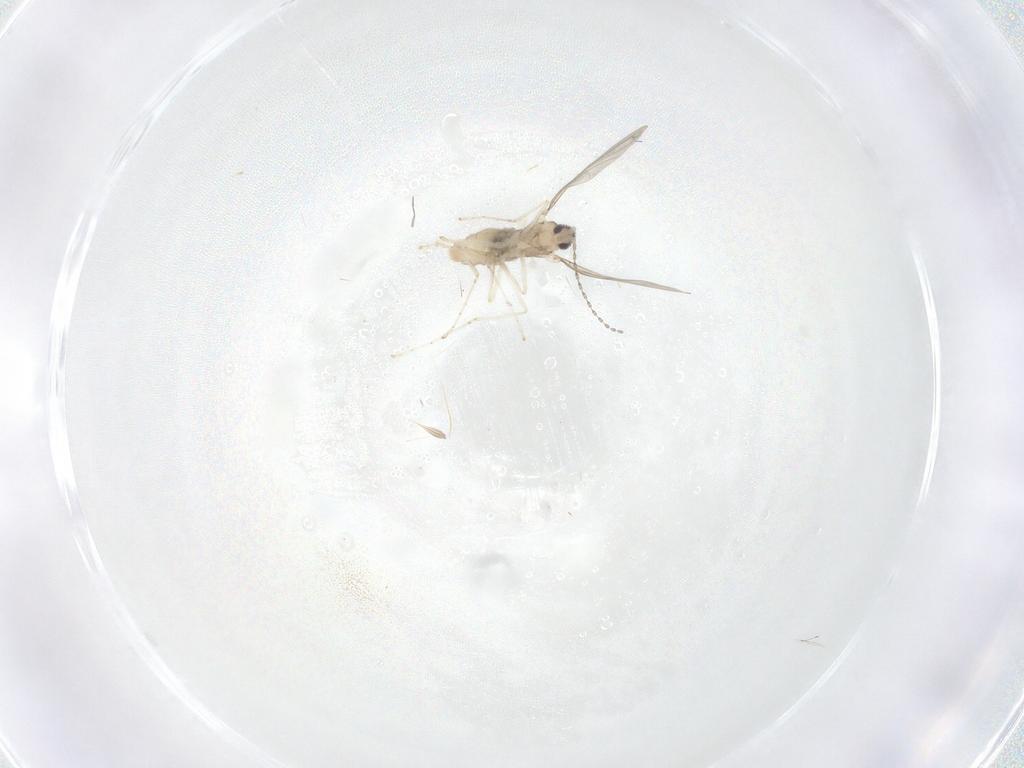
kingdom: Animalia
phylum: Arthropoda
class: Insecta
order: Diptera
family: Cecidomyiidae
